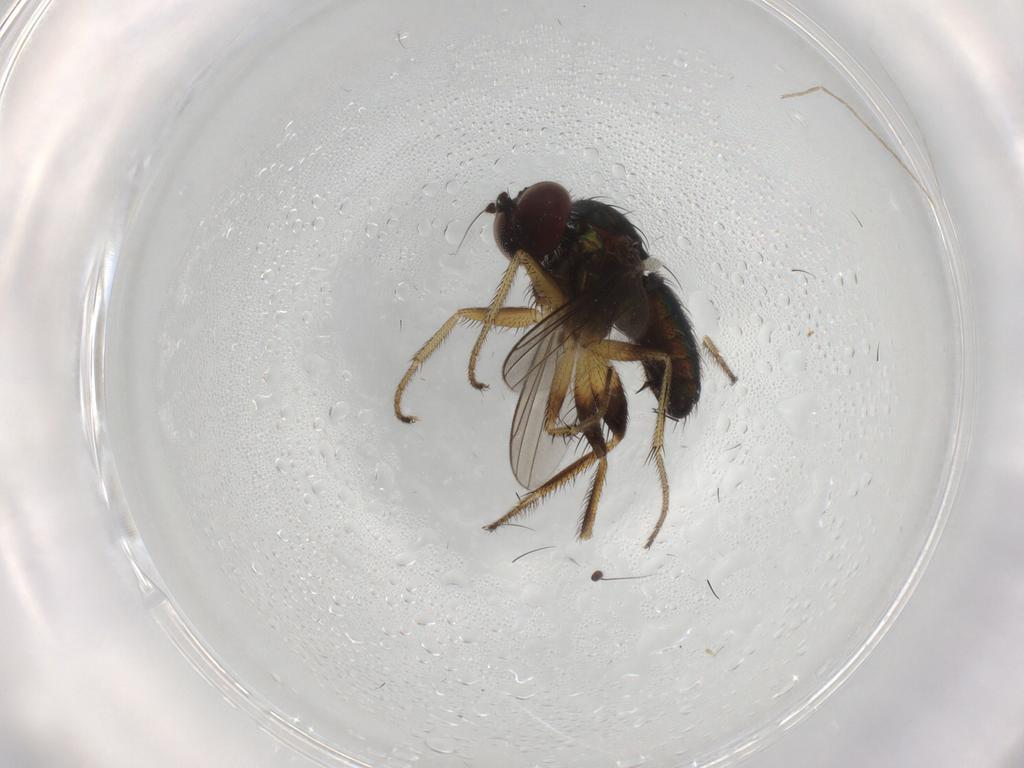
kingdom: Animalia
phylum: Arthropoda
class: Insecta
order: Diptera
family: Dolichopodidae
